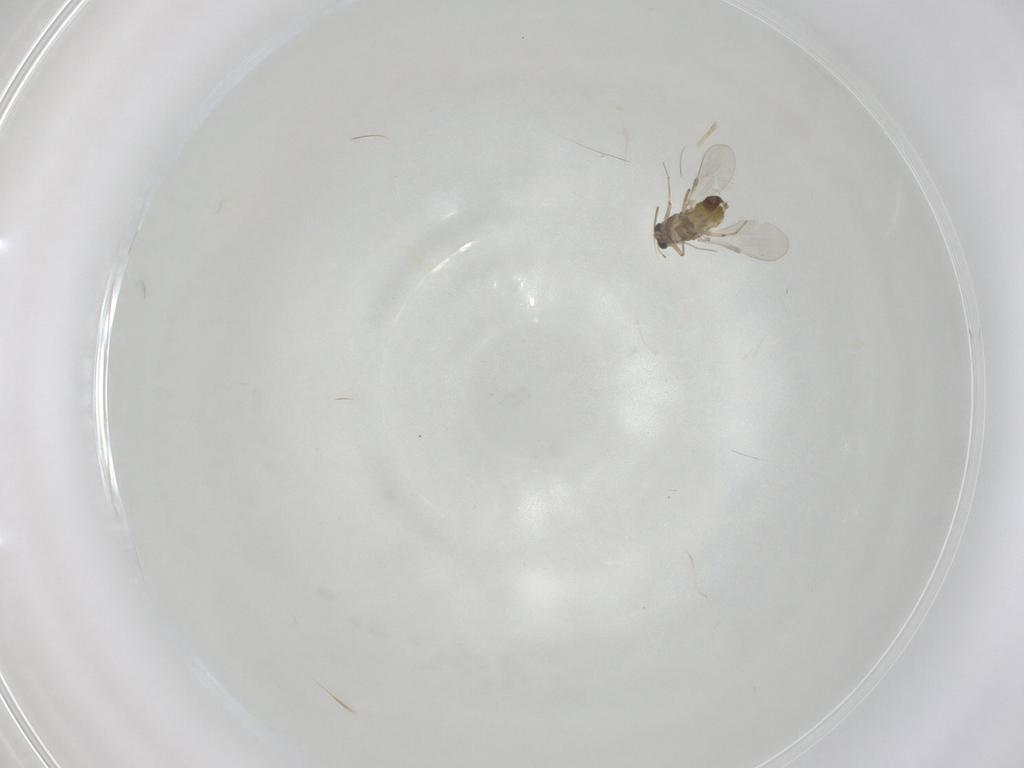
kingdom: Animalia
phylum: Arthropoda
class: Insecta
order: Diptera
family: Chironomidae
